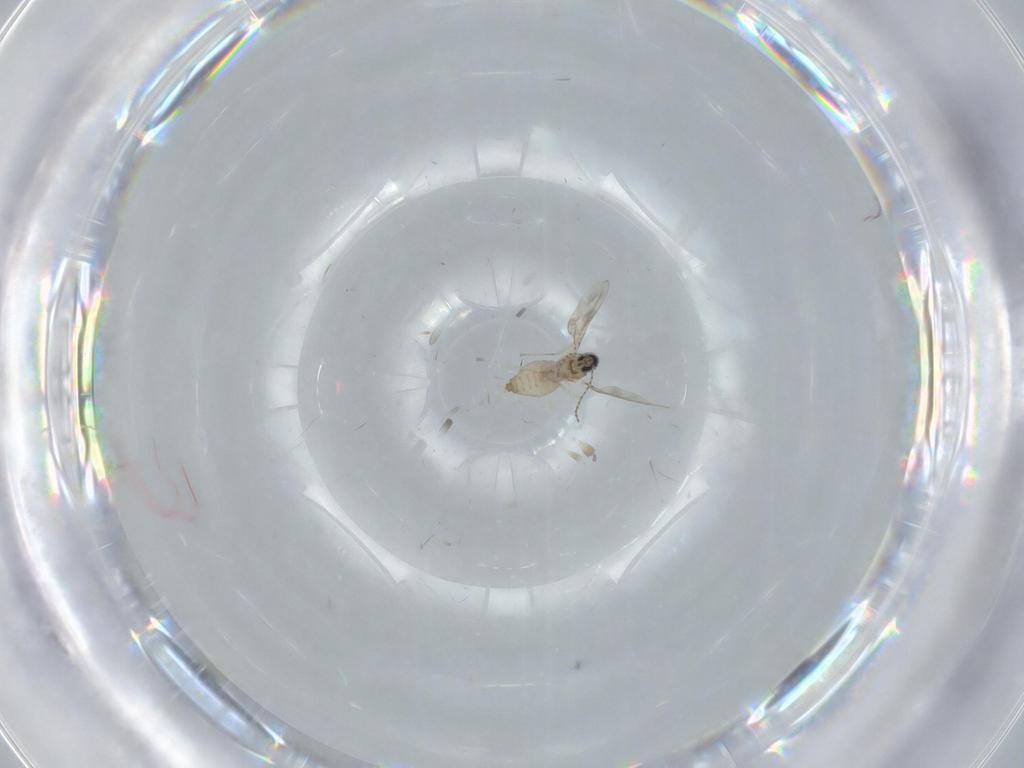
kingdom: Animalia
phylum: Arthropoda
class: Insecta
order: Diptera
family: Cecidomyiidae
